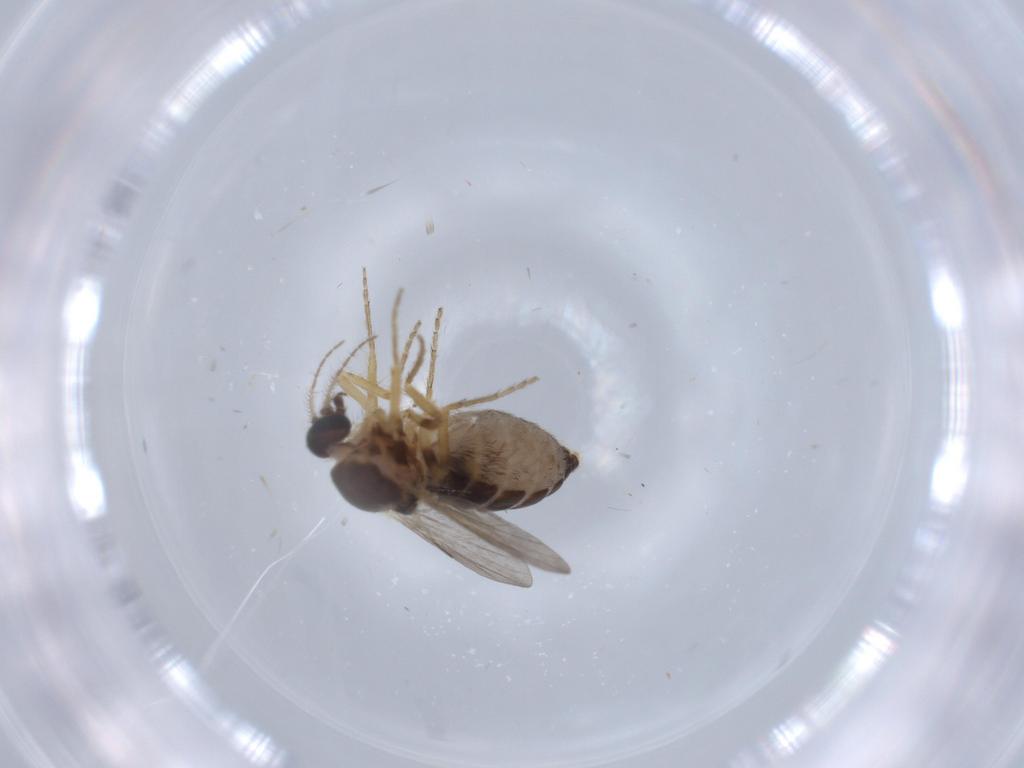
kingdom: Animalia
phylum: Arthropoda
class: Insecta
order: Diptera
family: Ceratopogonidae
